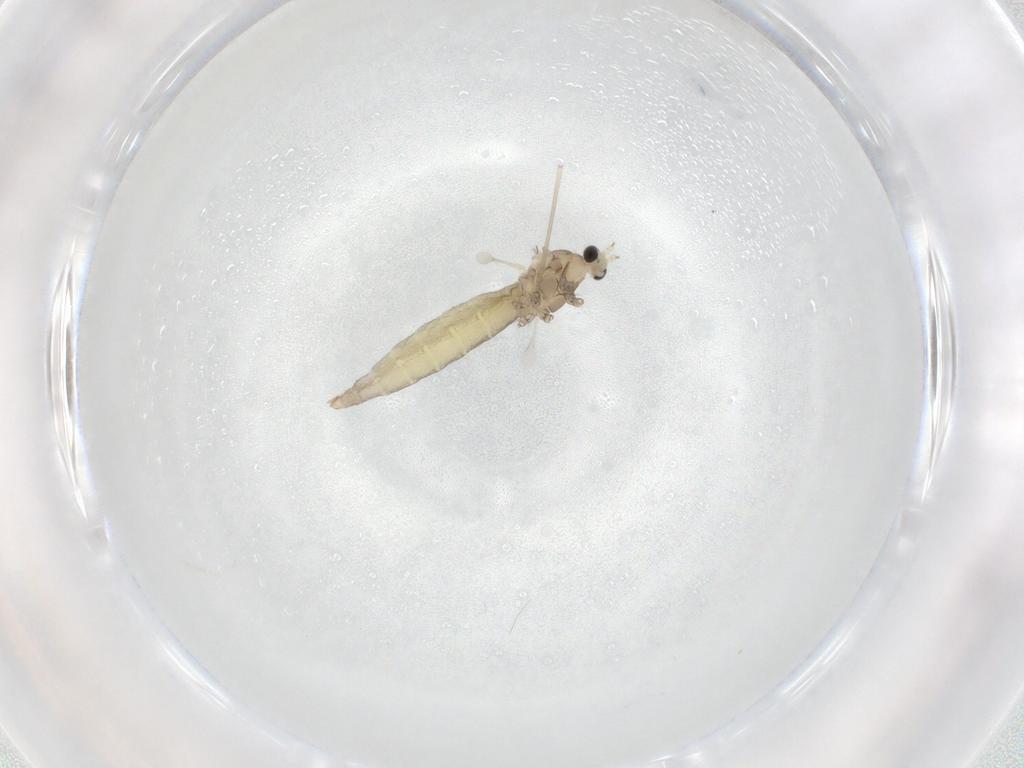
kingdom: Animalia
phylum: Arthropoda
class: Insecta
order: Diptera
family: Cecidomyiidae
